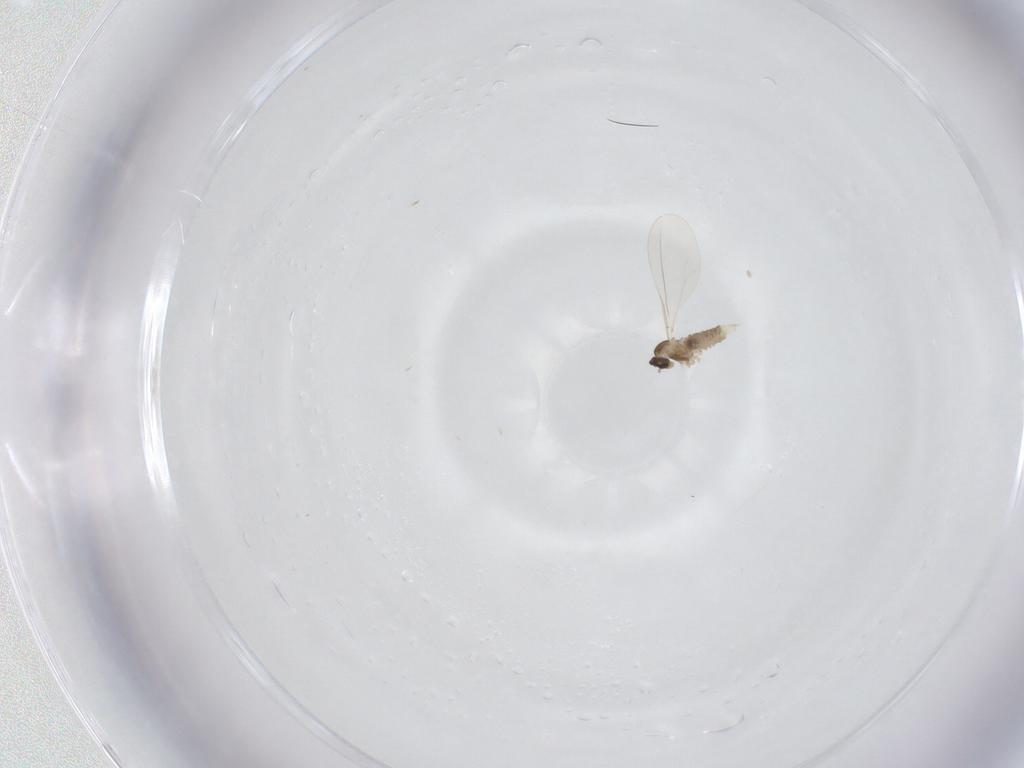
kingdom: Animalia
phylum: Arthropoda
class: Insecta
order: Diptera
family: Cecidomyiidae
